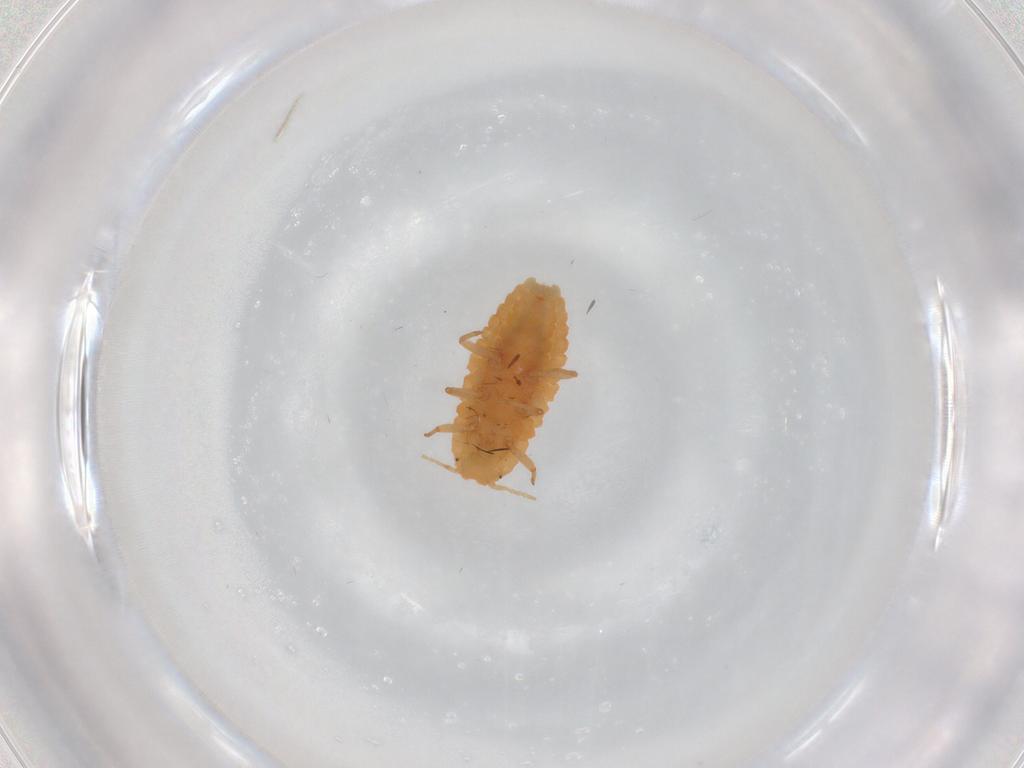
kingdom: Animalia
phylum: Arthropoda
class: Insecta
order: Hemiptera
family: Pseudococcidae
